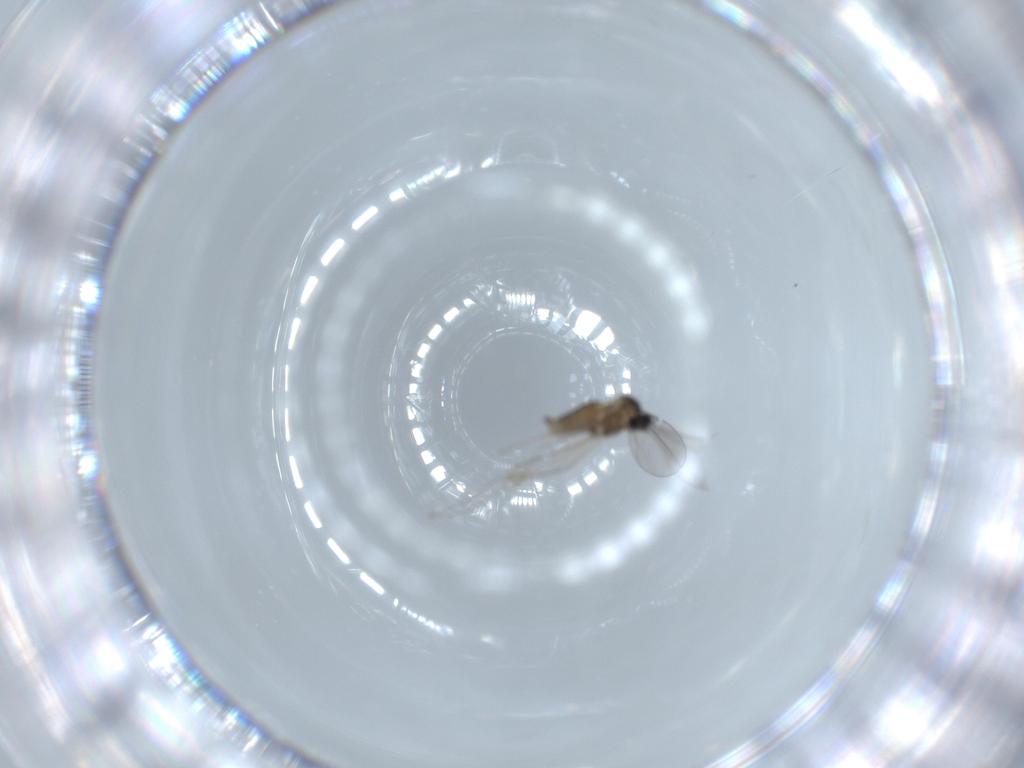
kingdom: Animalia
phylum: Arthropoda
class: Insecta
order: Diptera
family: Cecidomyiidae
